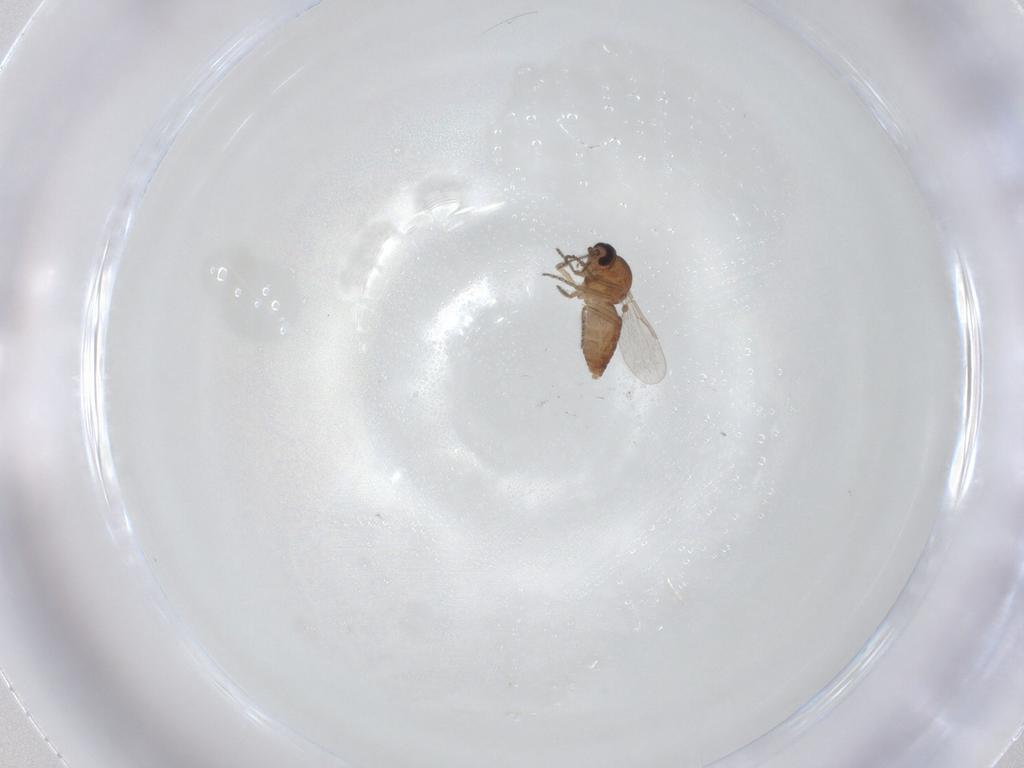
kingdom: Animalia
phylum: Arthropoda
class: Insecta
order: Diptera
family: Ceratopogonidae
